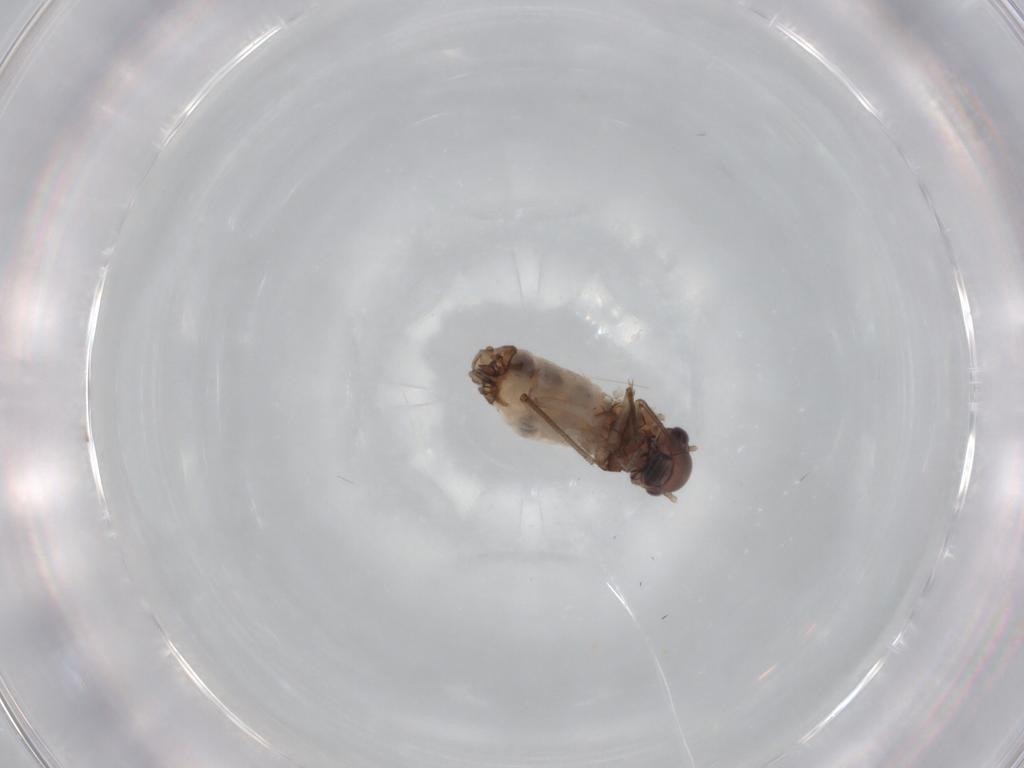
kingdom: Animalia
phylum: Arthropoda
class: Insecta
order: Psocodea
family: Peripsocidae
